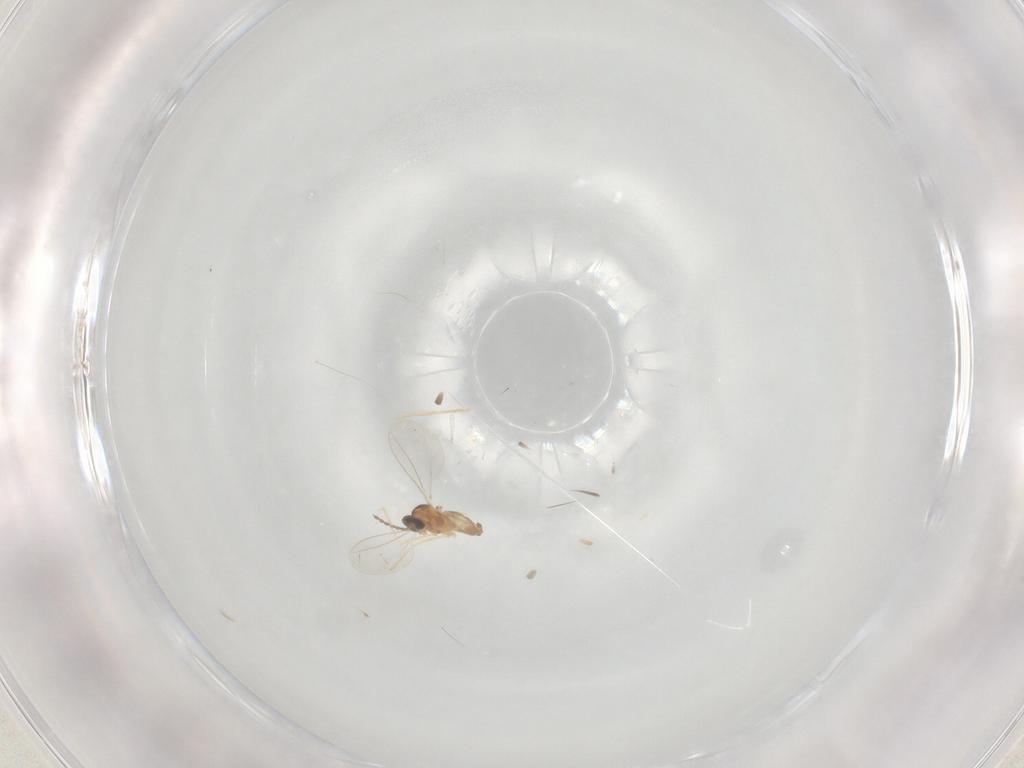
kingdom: Animalia
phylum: Arthropoda
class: Insecta
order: Diptera
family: Cecidomyiidae
